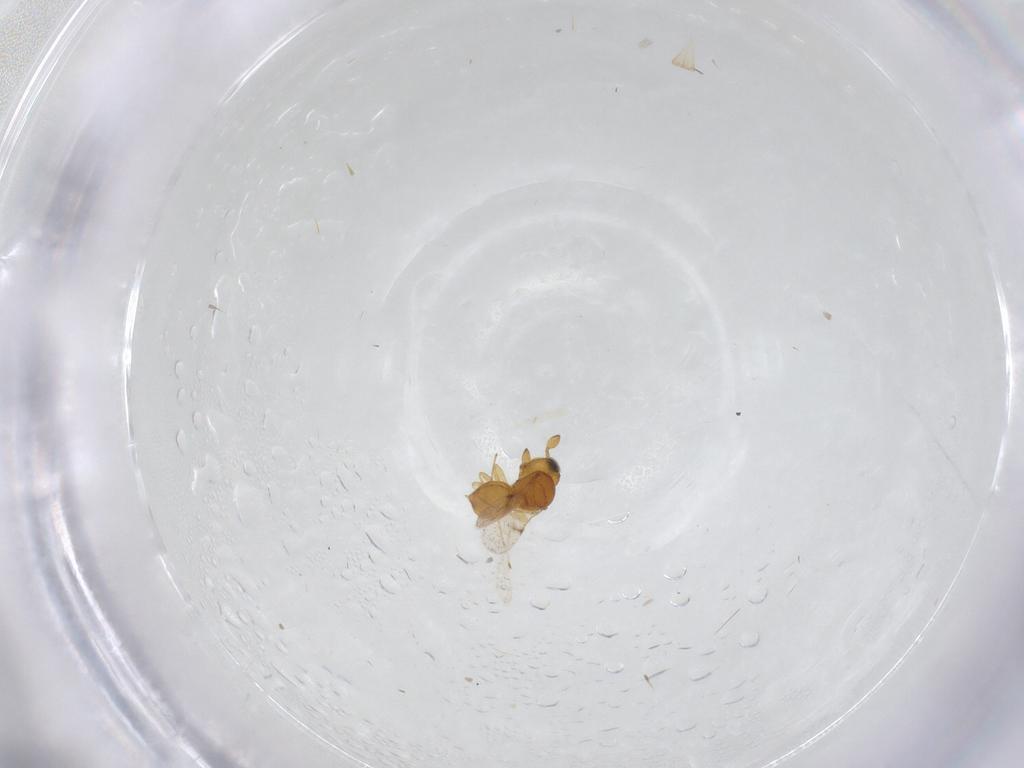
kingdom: Animalia
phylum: Arthropoda
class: Insecta
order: Hymenoptera
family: Scelionidae
